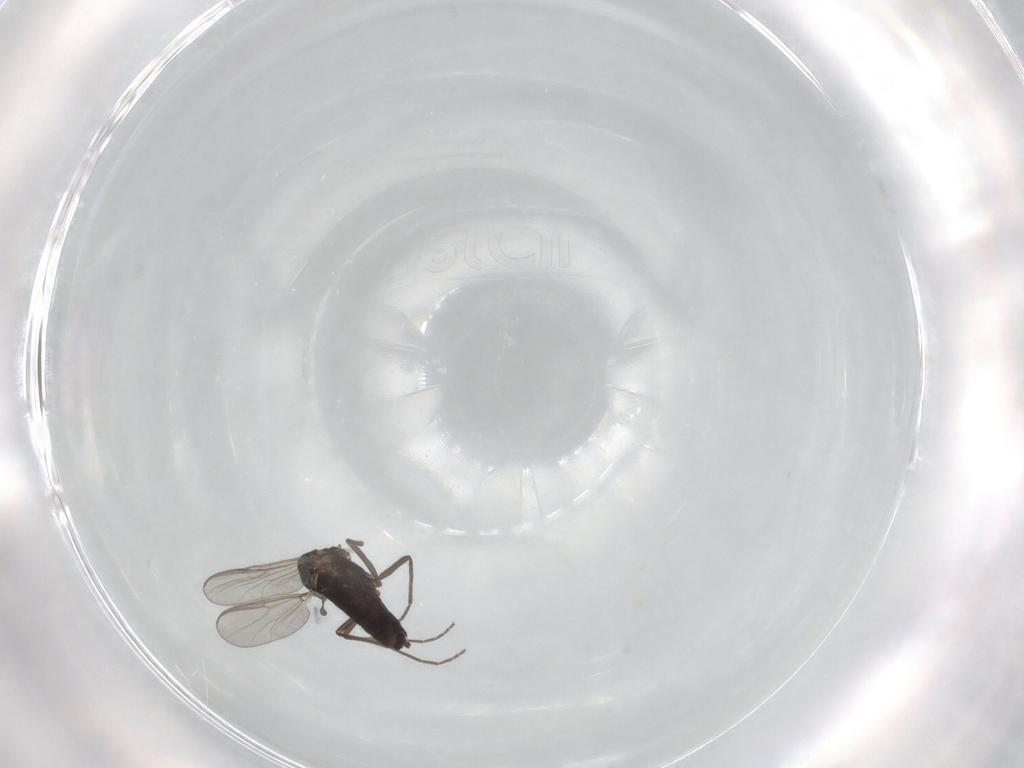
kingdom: Animalia
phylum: Arthropoda
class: Insecta
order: Diptera
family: Chironomidae
